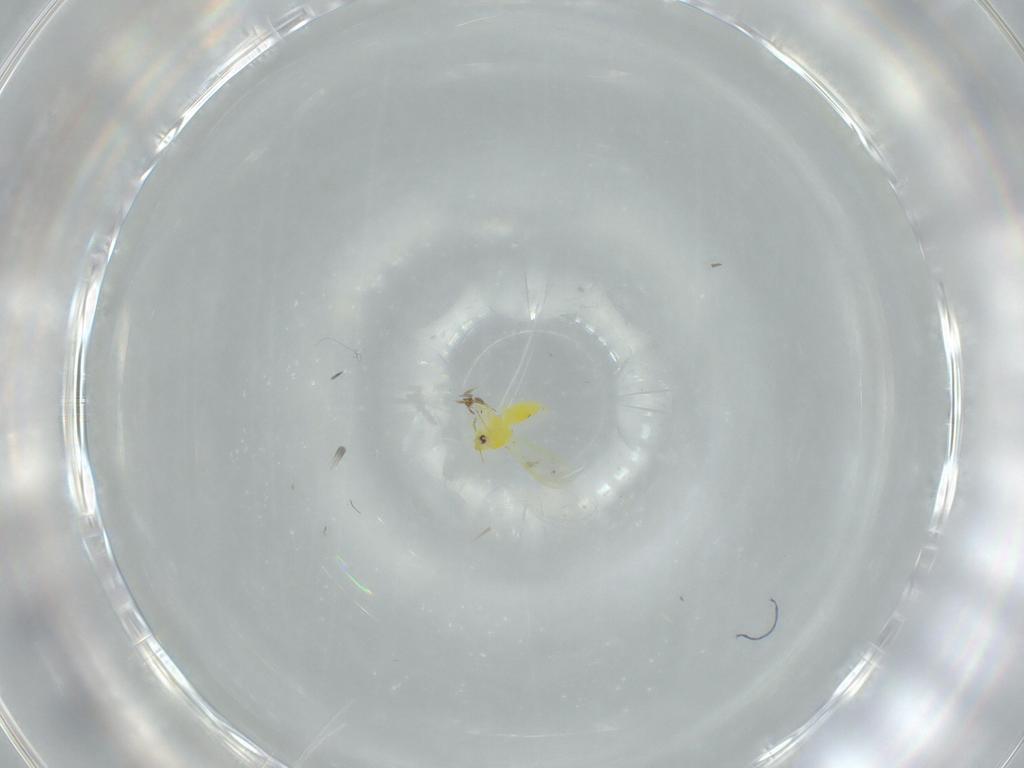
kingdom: Animalia
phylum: Arthropoda
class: Insecta
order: Hemiptera
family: Aleyrodidae
